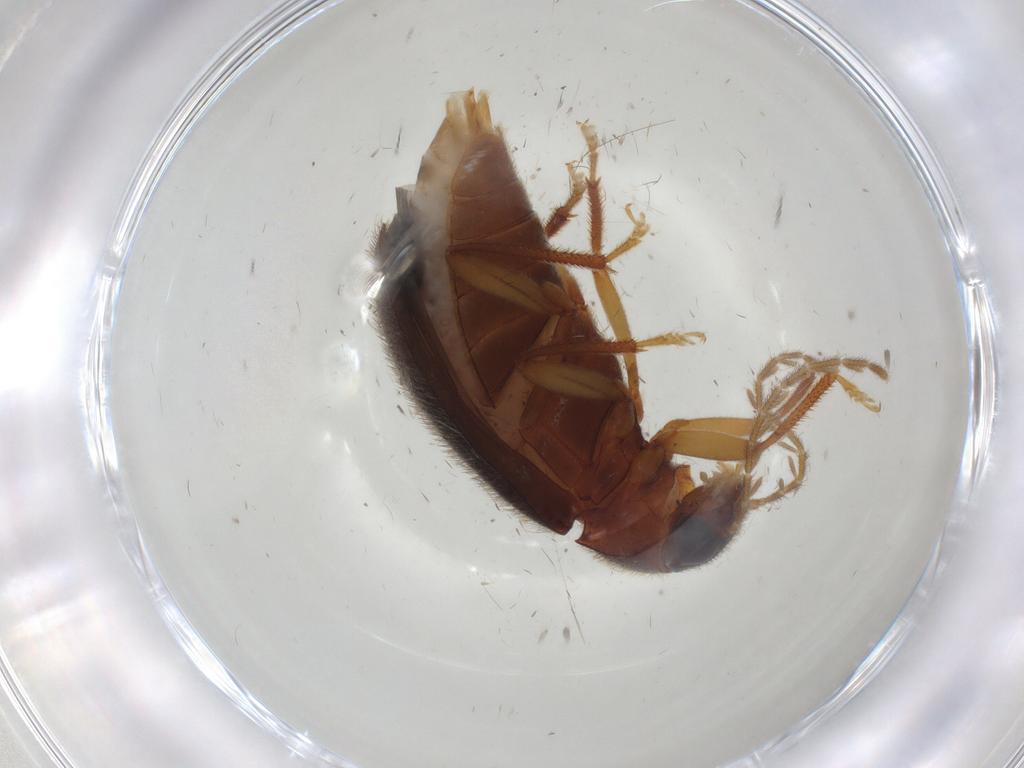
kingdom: Animalia
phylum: Arthropoda
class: Insecta
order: Coleoptera
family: Ptilodactylidae
